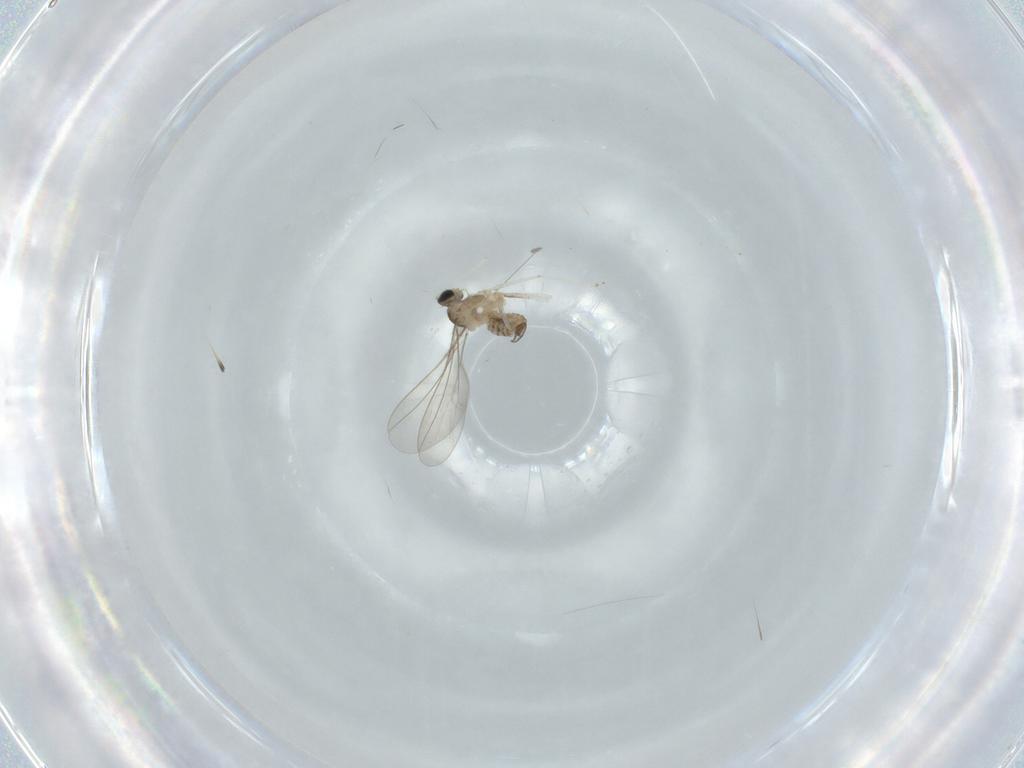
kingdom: Animalia
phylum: Arthropoda
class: Insecta
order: Diptera
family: Cecidomyiidae
